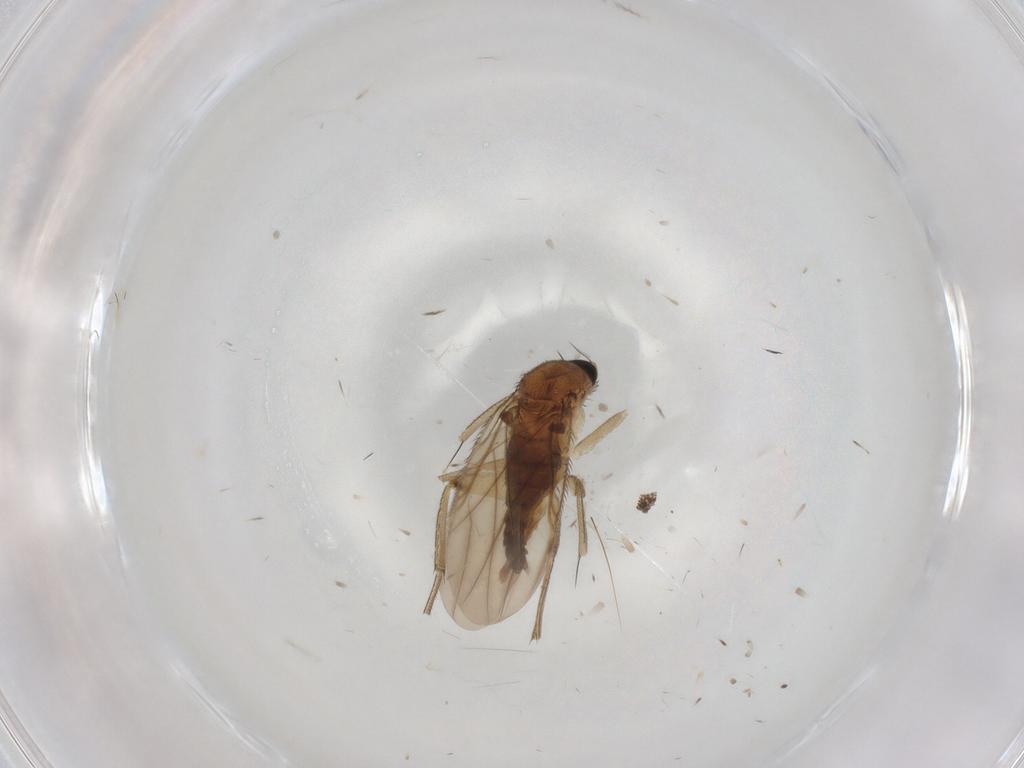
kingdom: Animalia
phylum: Arthropoda
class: Insecta
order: Diptera
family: Phoridae
